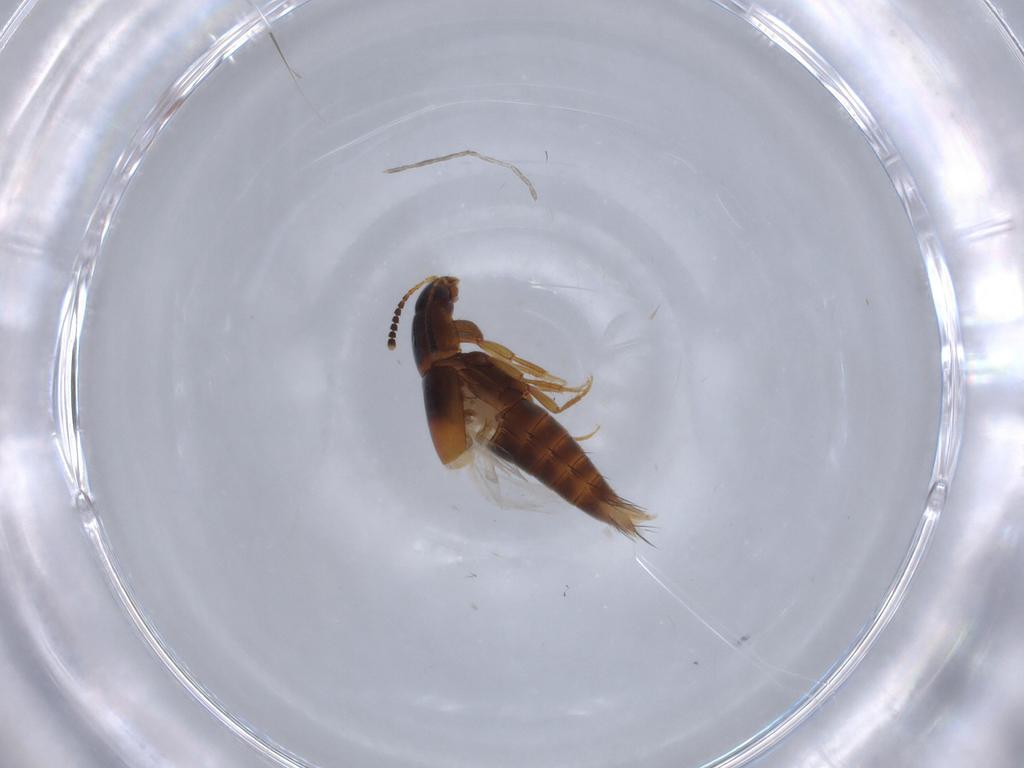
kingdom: Animalia
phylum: Arthropoda
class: Insecta
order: Coleoptera
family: Staphylinidae
